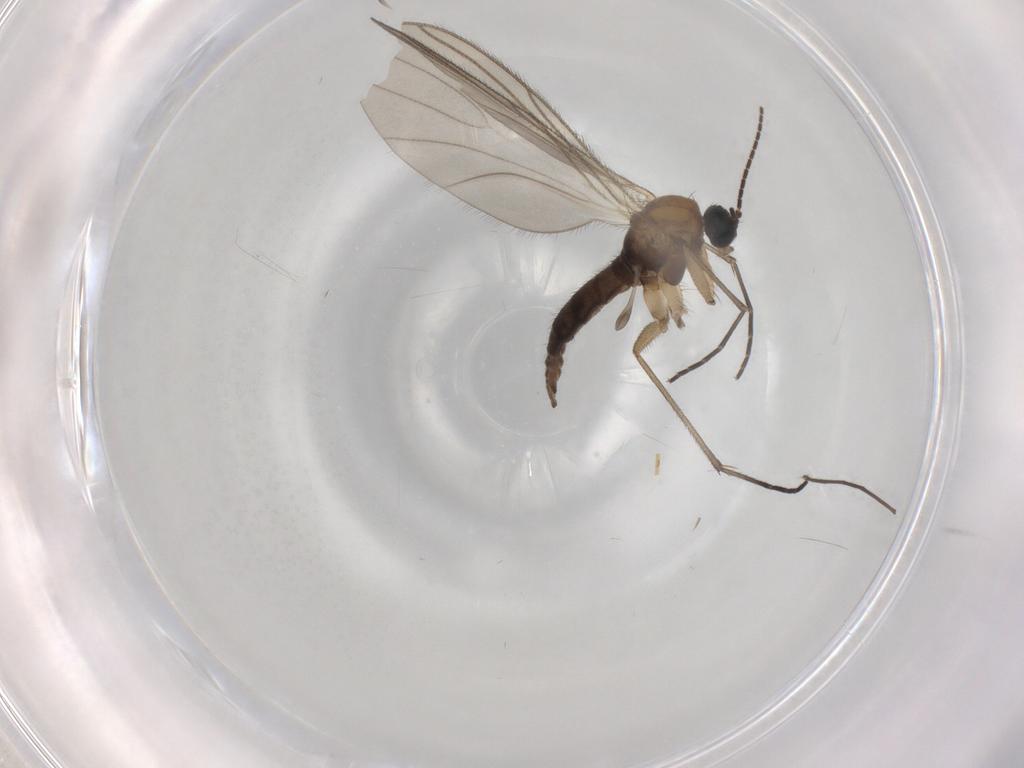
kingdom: Animalia
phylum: Arthropoda
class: Insecta
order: Diptera
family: Sciaridae
